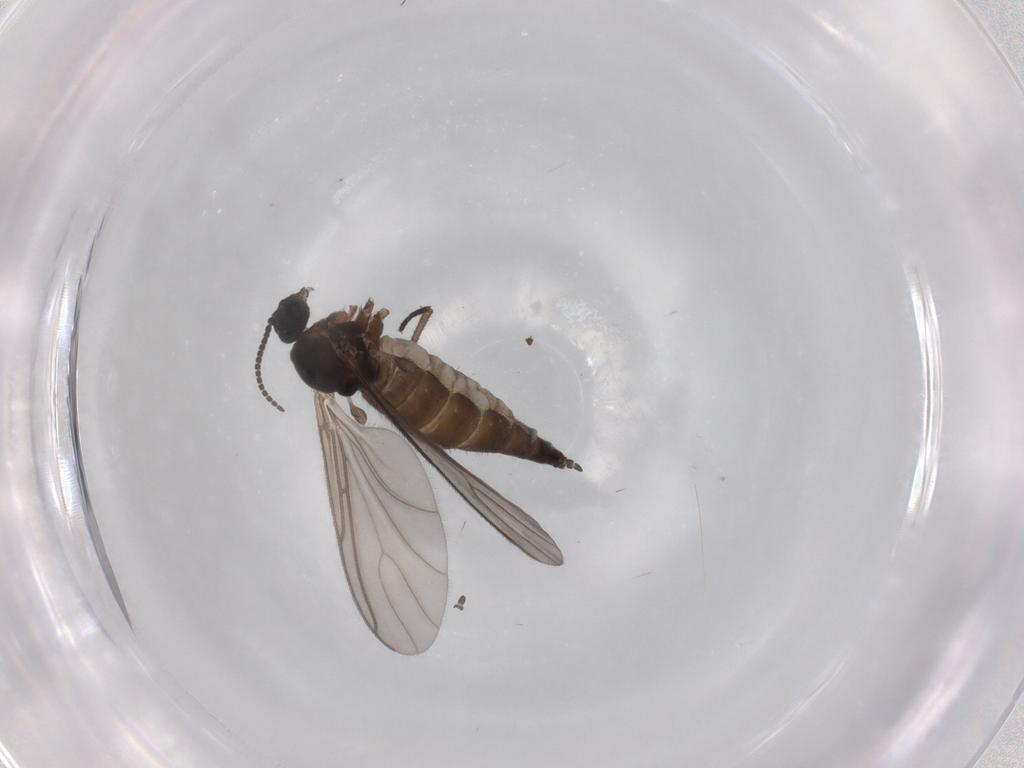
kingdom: Animalia
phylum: Arthropoda
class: Insecta
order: Diptera
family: Sciaridae
